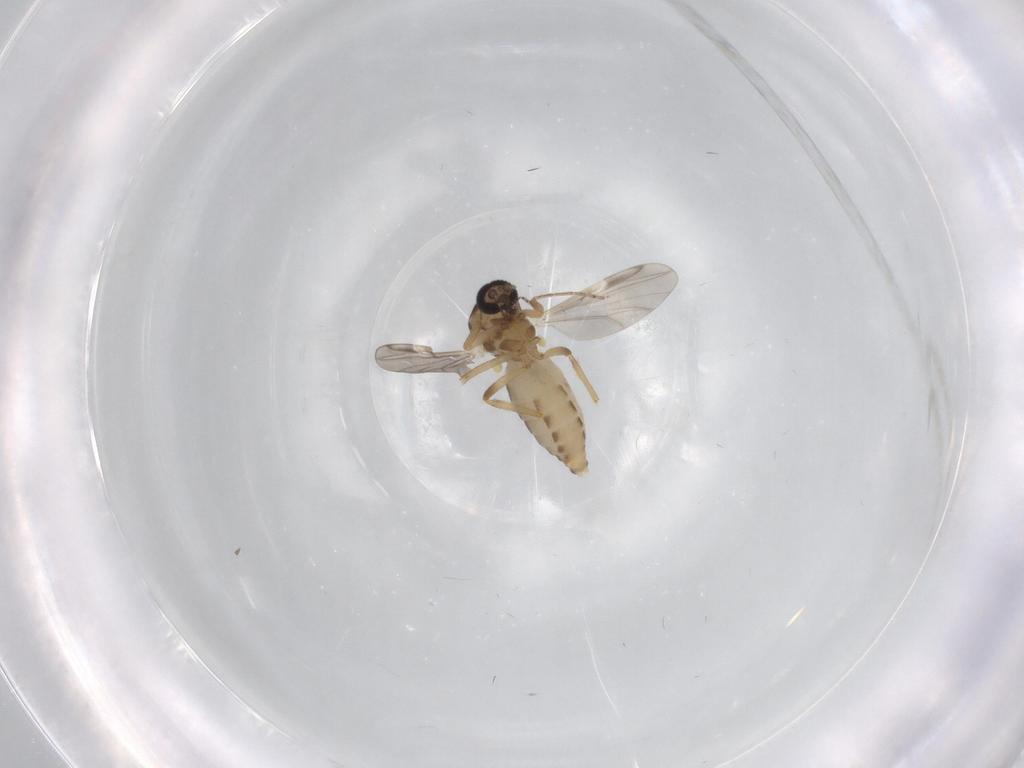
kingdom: Animalia
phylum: Arthropoda
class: Insecta
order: Diptera
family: Ceratopogonidae
